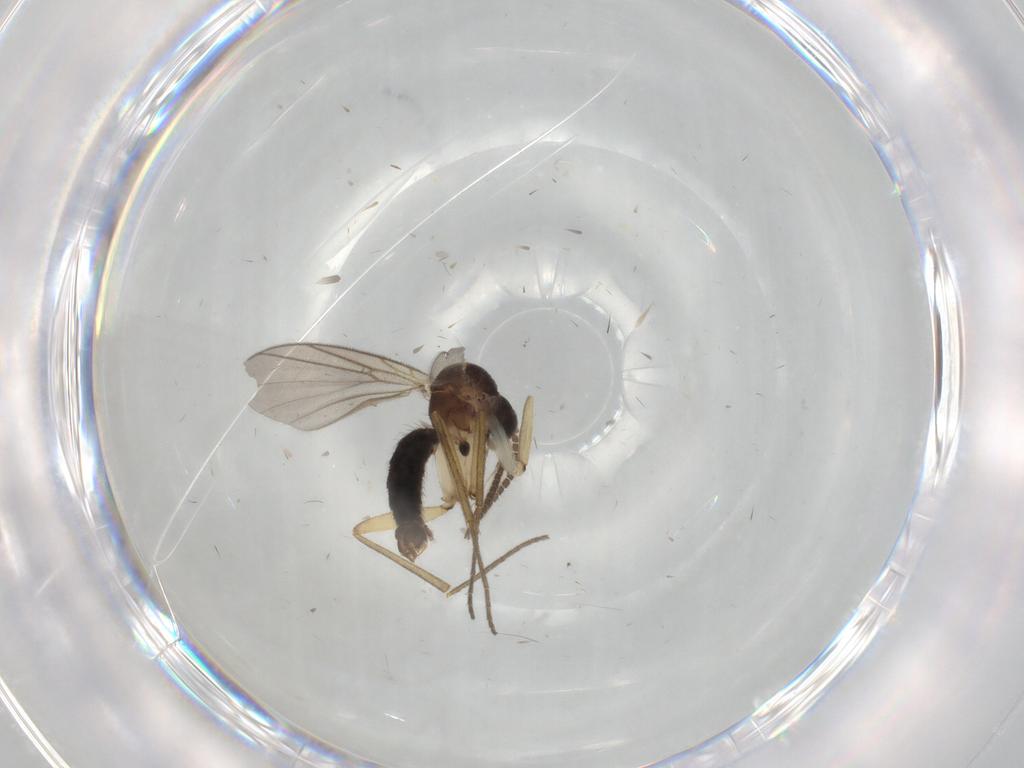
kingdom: Animalia
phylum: Arthropoda
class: Insecta
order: Diptera
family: Mycetophilidae
